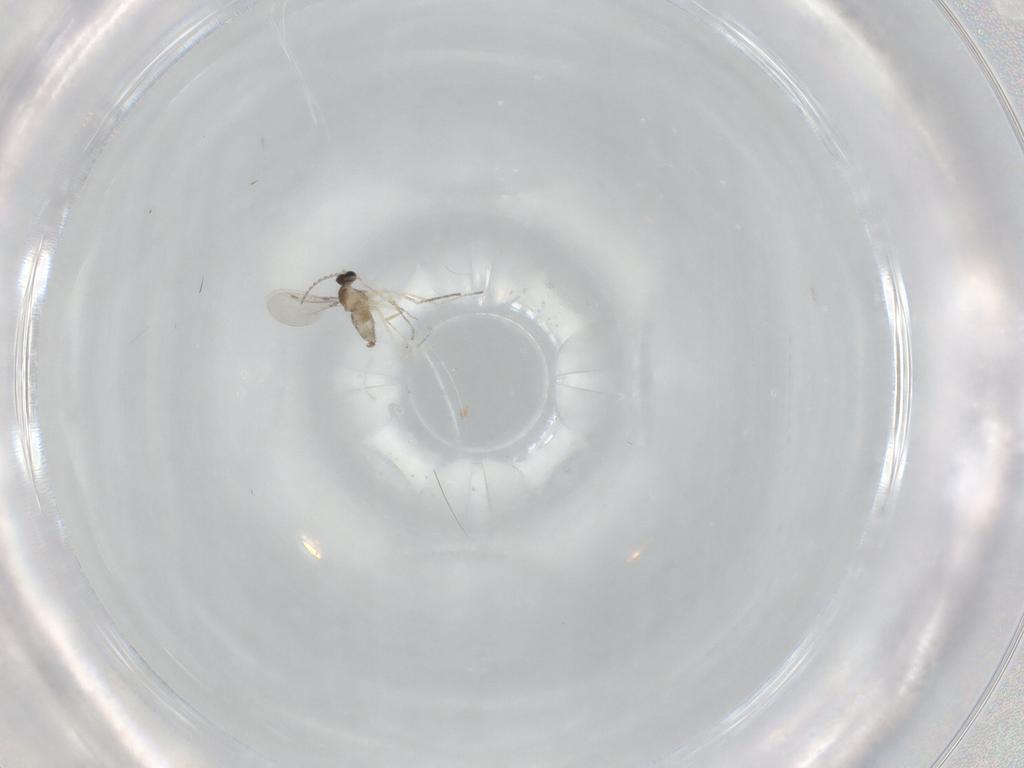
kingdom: Animalia
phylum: Arthropoda
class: Insecta
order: Diptera
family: Cecidomyiidae
